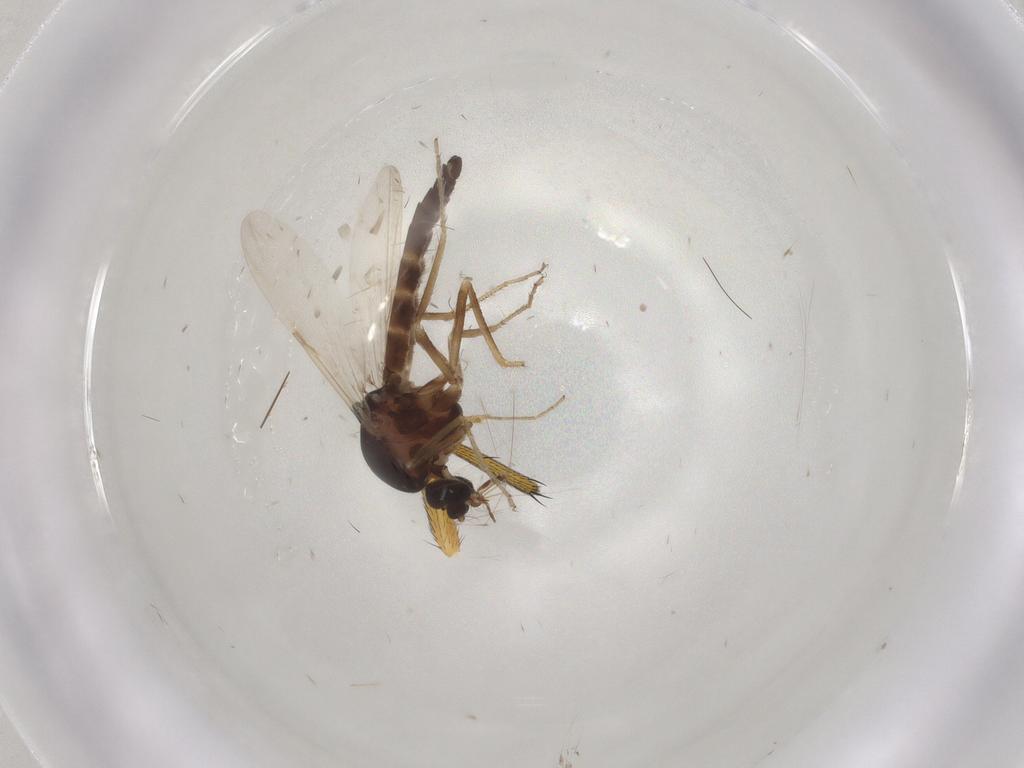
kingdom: Animalia
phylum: Arthropoda
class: Insecta
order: Diptera
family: Ceratopogonidae
